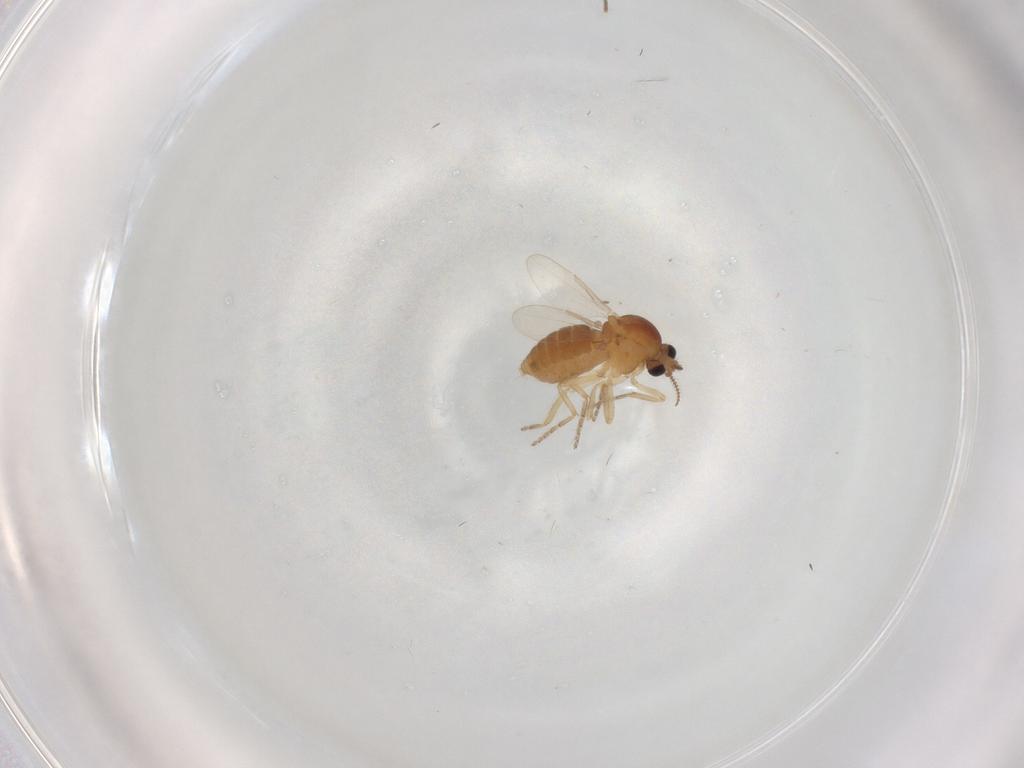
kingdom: Animalia
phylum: Arthropoda
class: Insecta
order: Diptera
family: Ceratopogonidae
